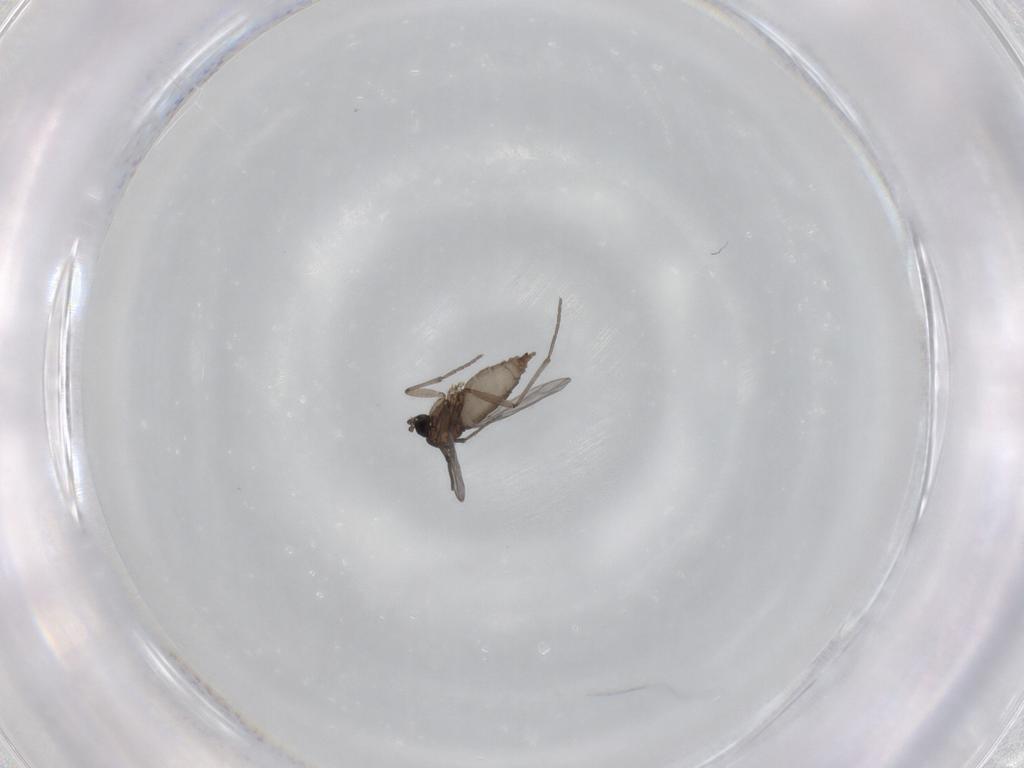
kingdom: Animalia
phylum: Arthropoda
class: Insecta
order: Diptera
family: Sciaridae
